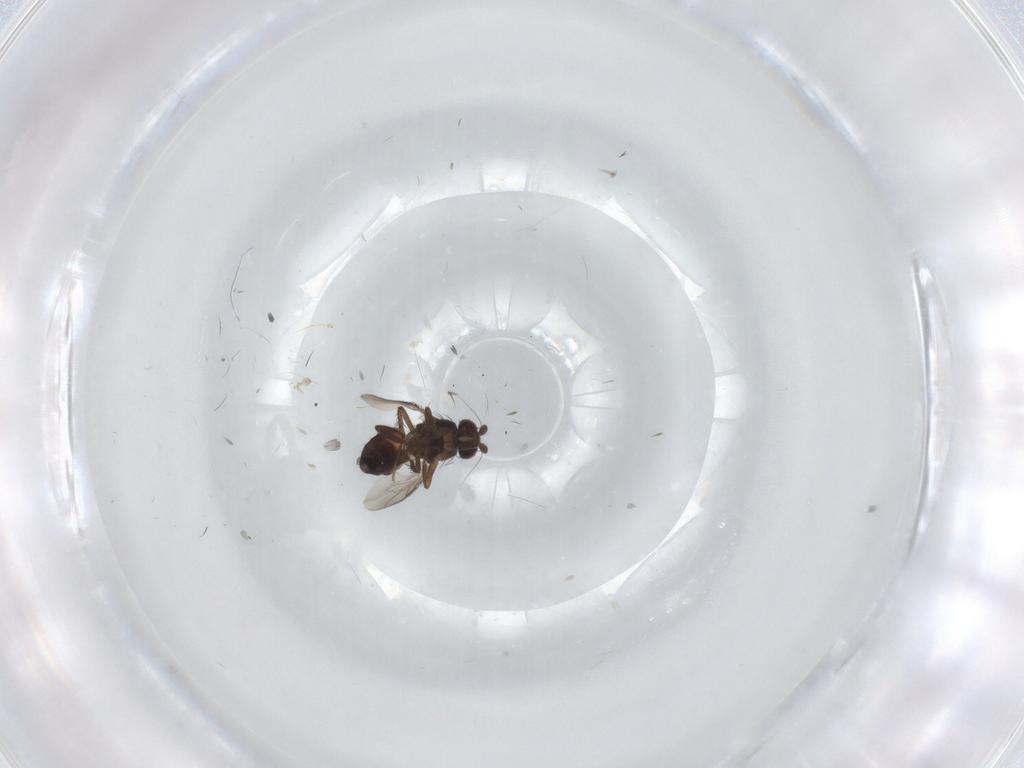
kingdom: Animalia
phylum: Arthropoda
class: Insecta
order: Diptera
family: Sphaeroceridae
